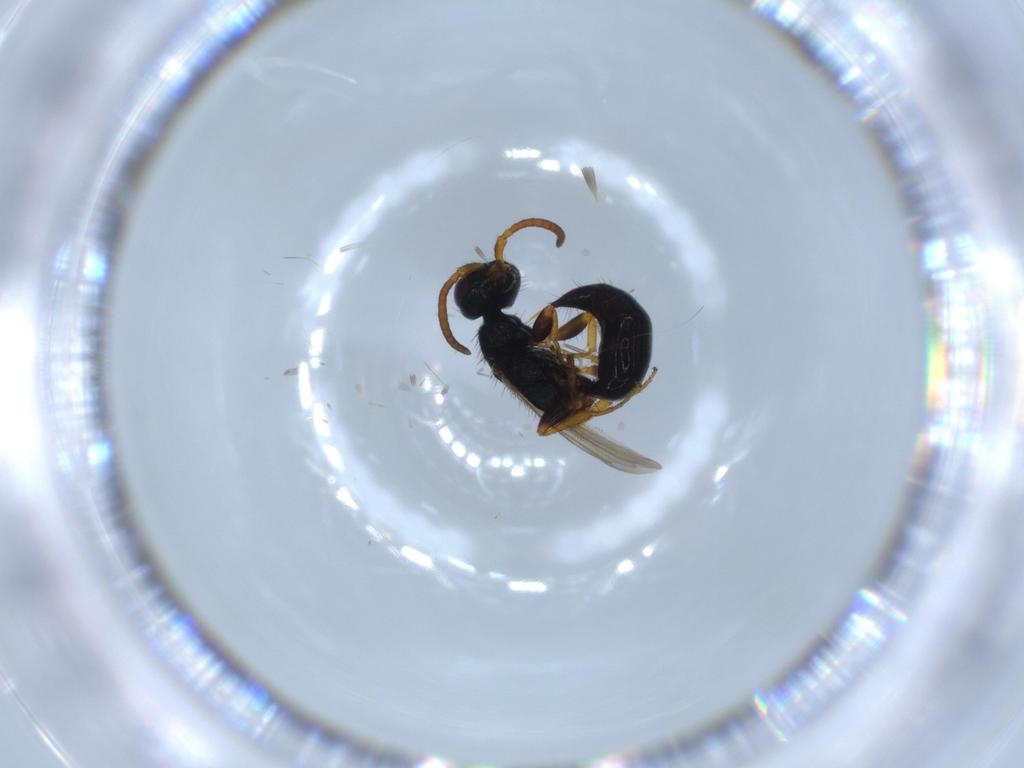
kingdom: Animalia
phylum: Arthropoda
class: Insecta
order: Hymenoptera
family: Bethylidae
